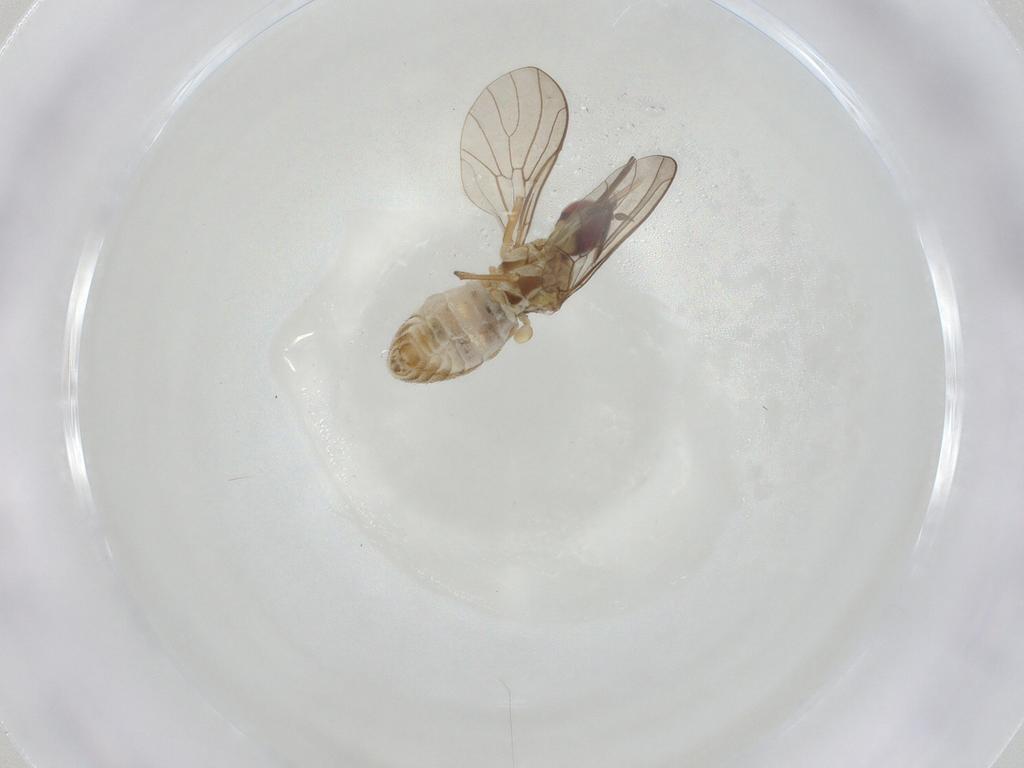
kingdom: Animalia
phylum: Arthropoda
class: Insecta
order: Diptera
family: Bombyliidae
